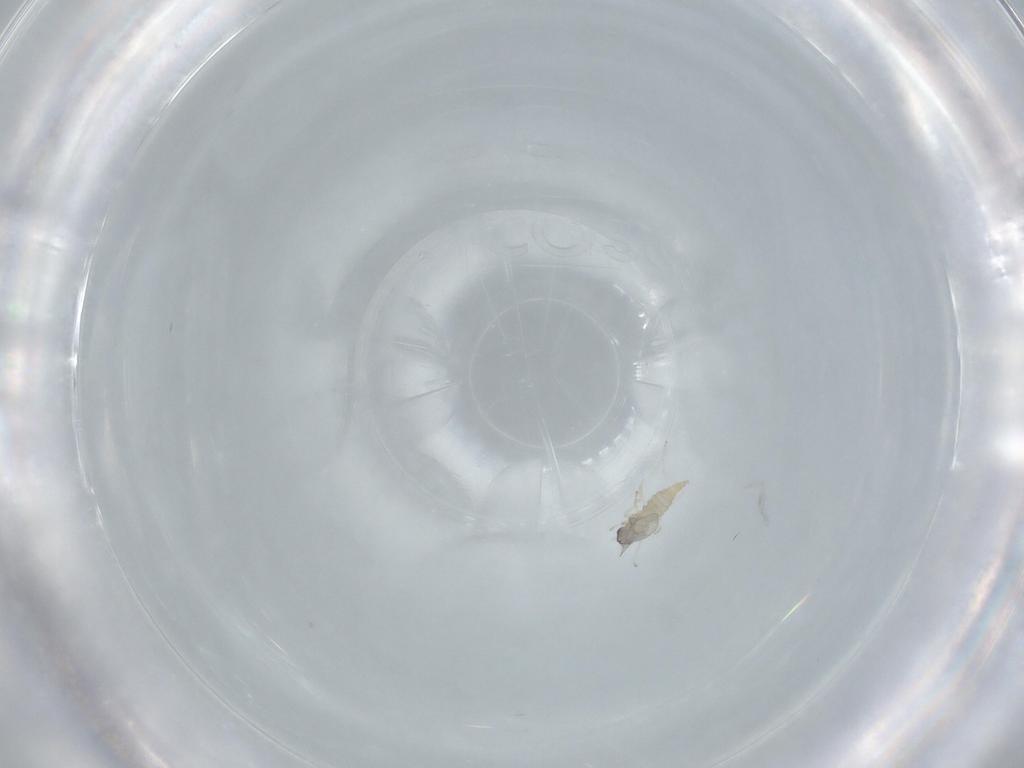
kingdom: Animalia
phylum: Arthropoda
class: Insecta
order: Diptera
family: Cecidomyiidae
